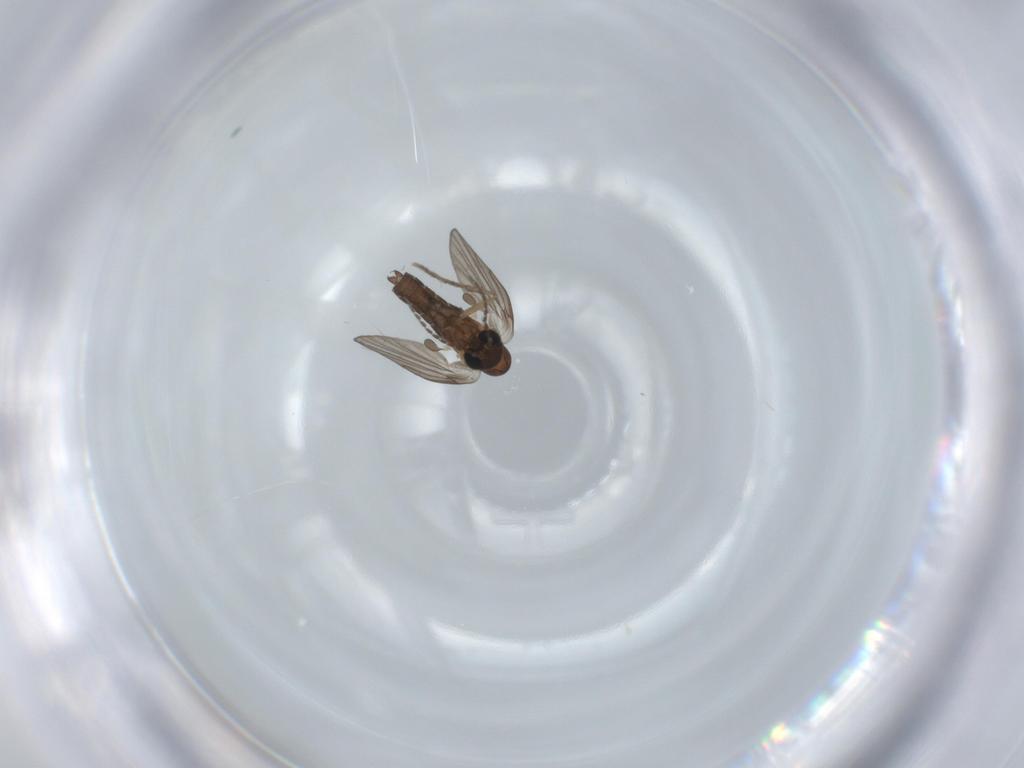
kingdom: Animalia
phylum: Arthropoda
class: Insecta
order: Diptera
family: Psychodidae
